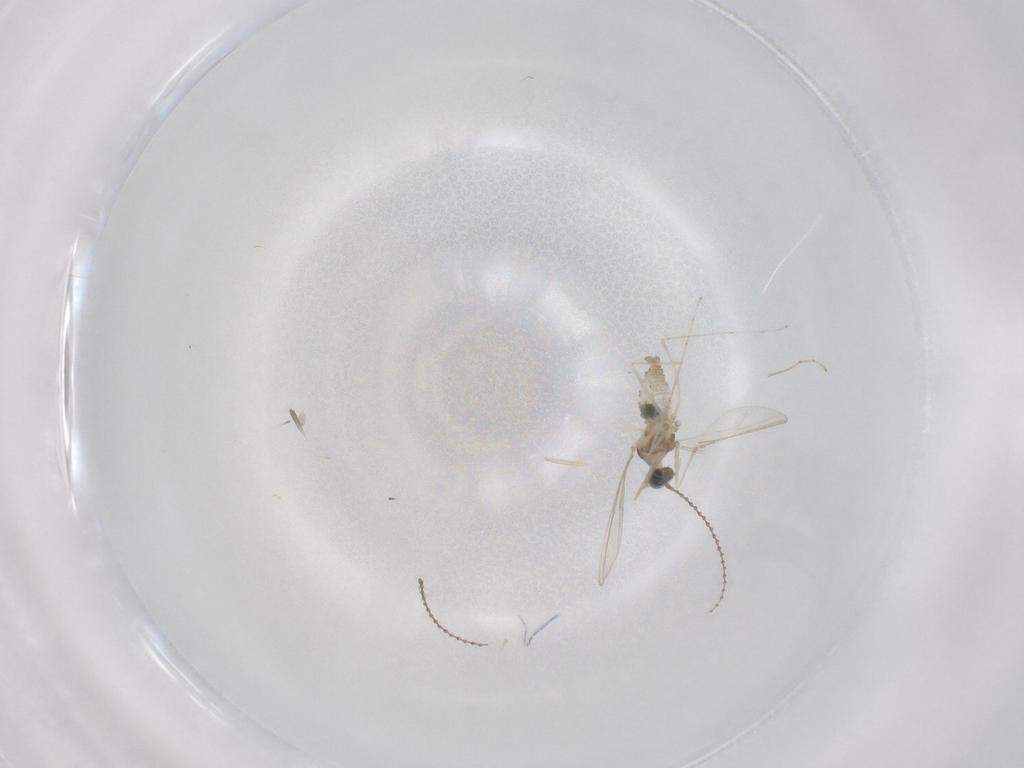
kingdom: Animalia
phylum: Arthropoda
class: Insecta
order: Diptera
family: Cecidomyiidae
